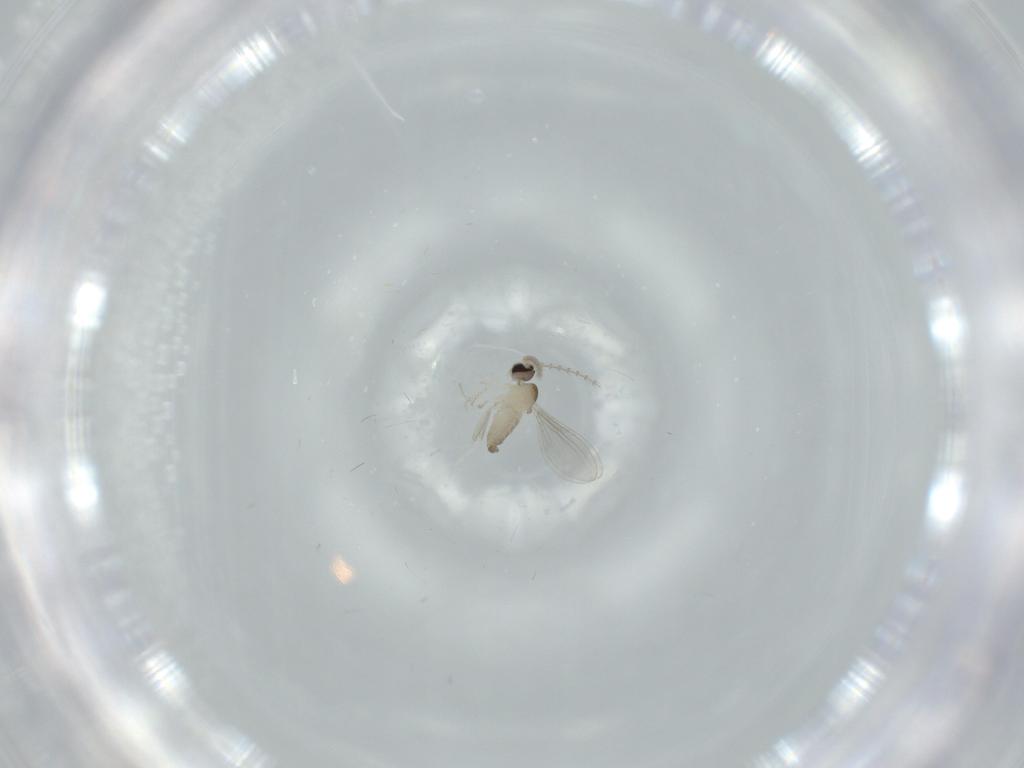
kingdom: Animalia
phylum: Arthropoda
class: Insecta
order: Diptera
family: Cecidomyiidae
